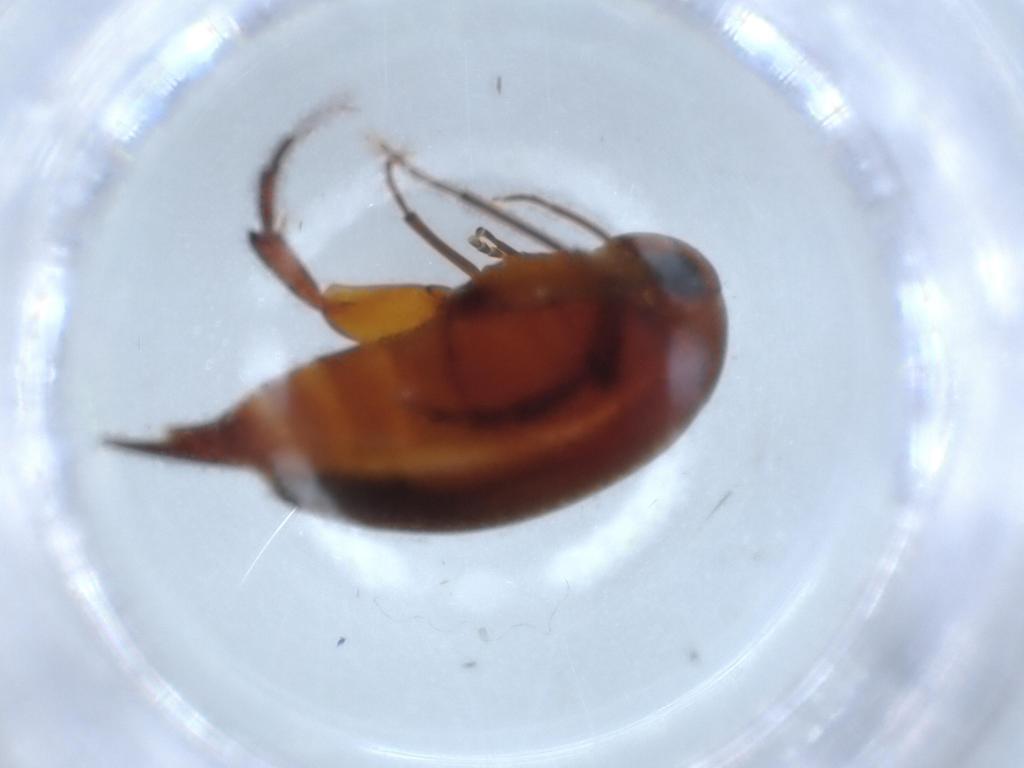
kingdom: Animalia
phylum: Arthropoda
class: Insecta
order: Coleoptera
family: Mordellidae
